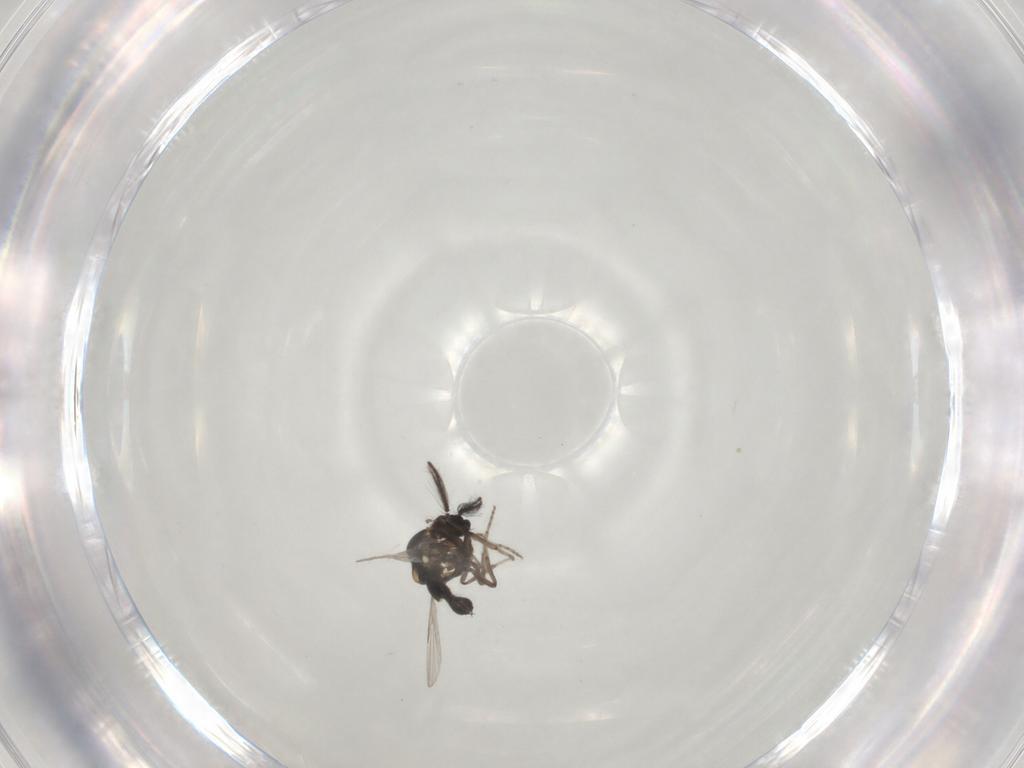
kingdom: Animalia
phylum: Arthropoda
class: Insecta
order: Diptera
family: Ceratopogonidae
